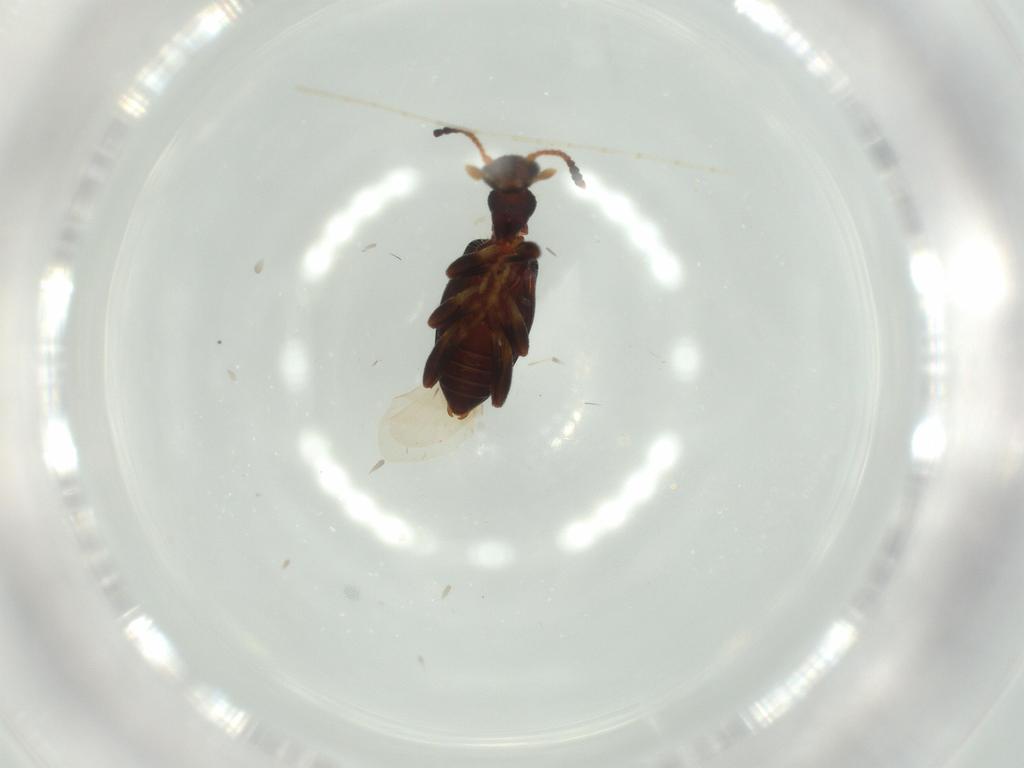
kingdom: Animalia
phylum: Arthropoda
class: Insecta
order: Coleoptera
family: Anthicidae
